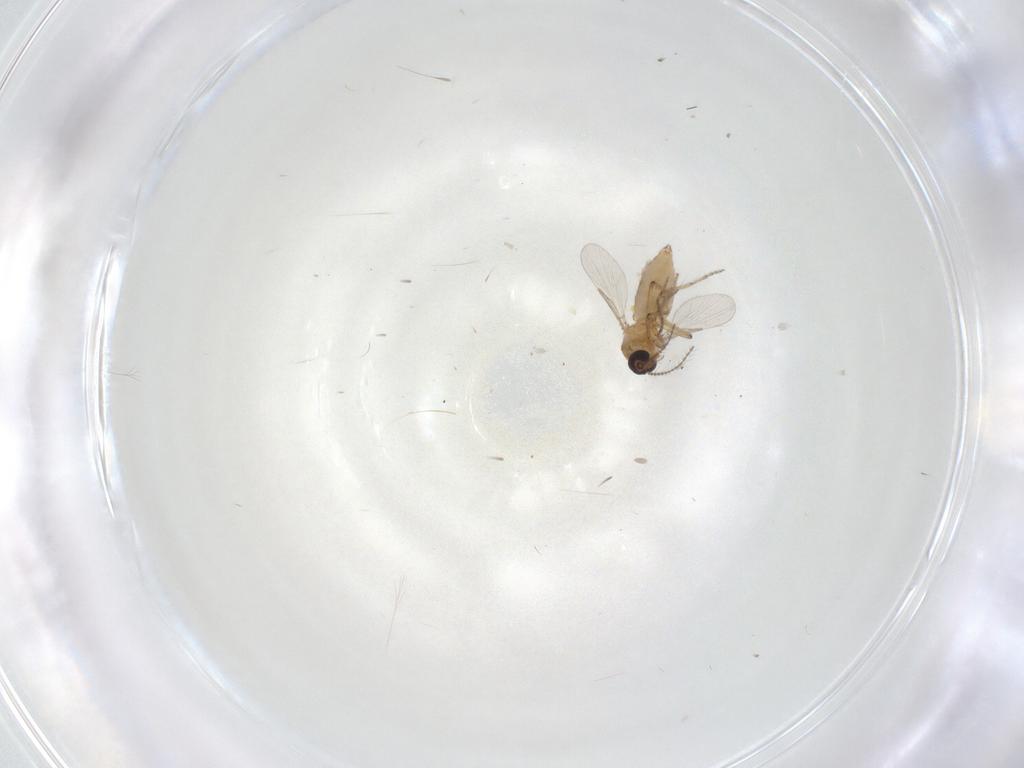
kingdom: Animalia
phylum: Arthropoda
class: Insecta
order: Diptera
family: Ceratopogonidae
